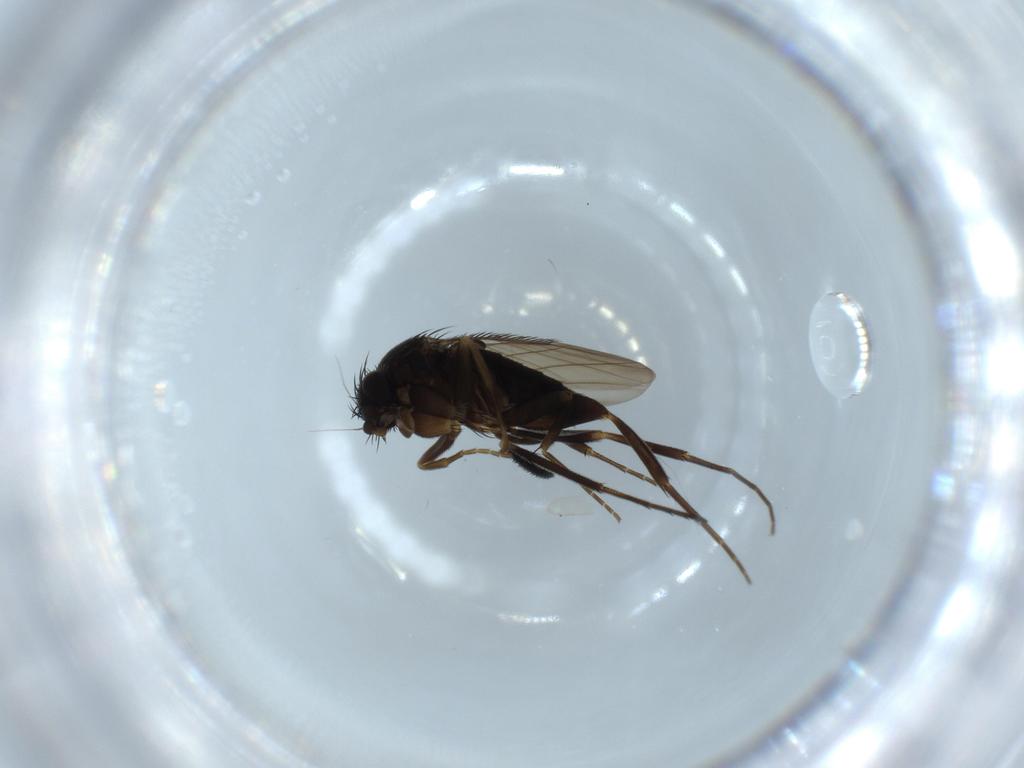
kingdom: Animalia
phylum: Arthropoda
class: Insecta
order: Diptera
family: Phoridae
